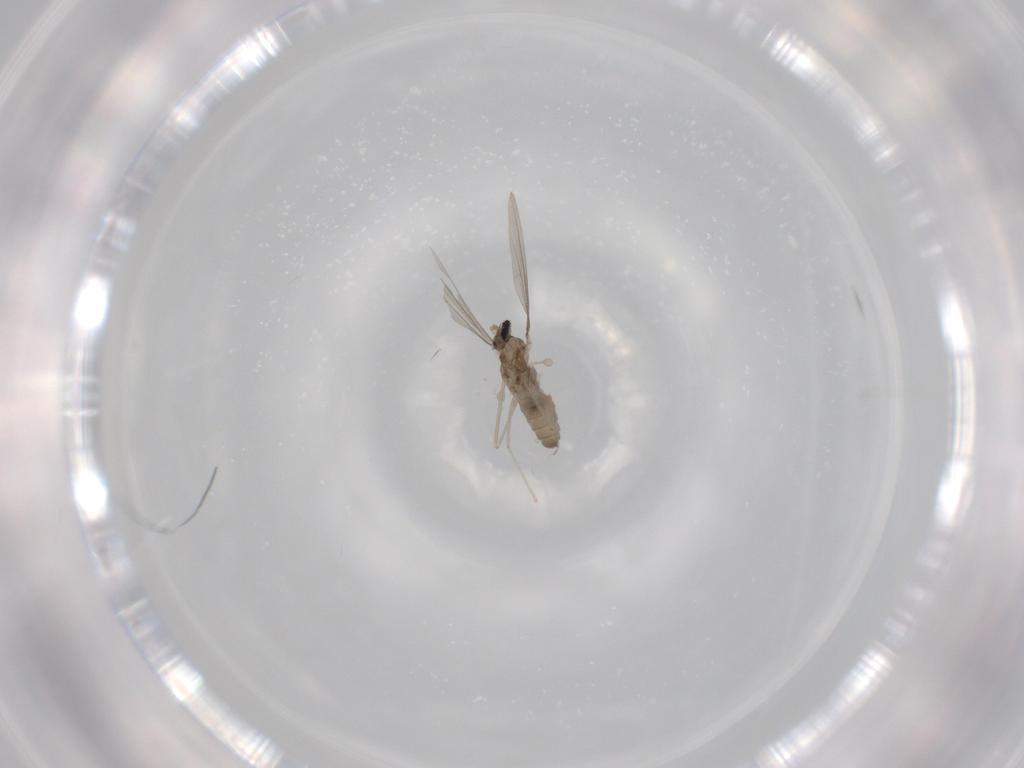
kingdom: Animalia
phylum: Arthropoda
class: Insecta
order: Diptera
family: Cecidomyiidae
